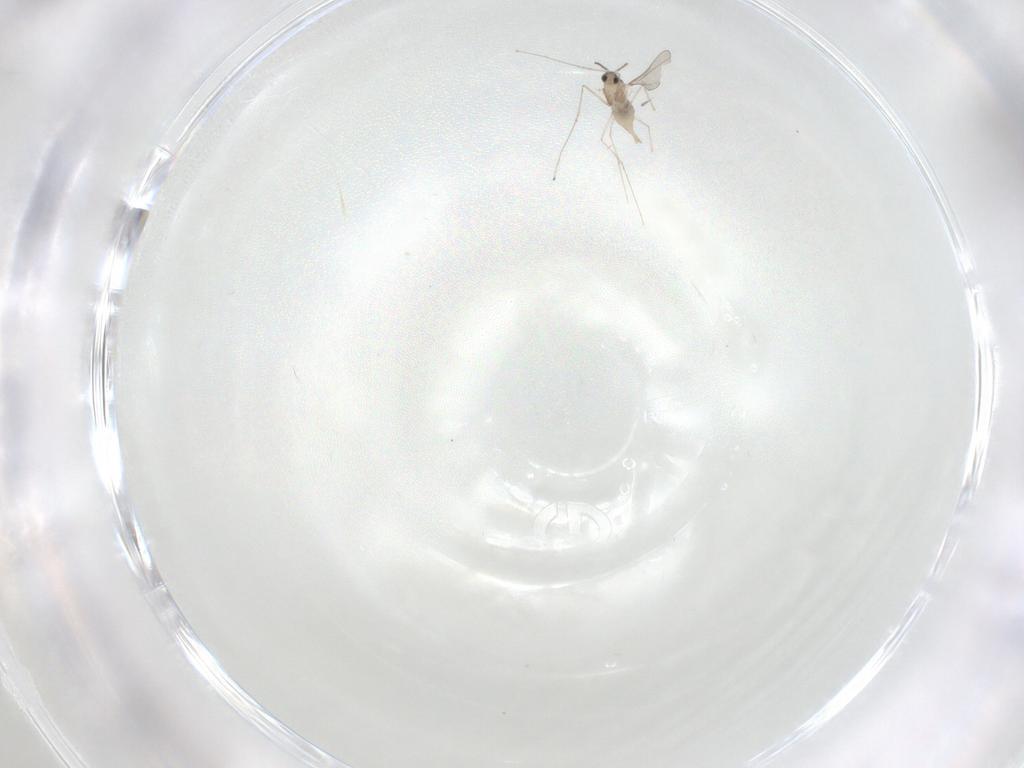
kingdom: Animalia
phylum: Arthropoda
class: Insecta
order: Diptera
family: Cecidomyiidae
